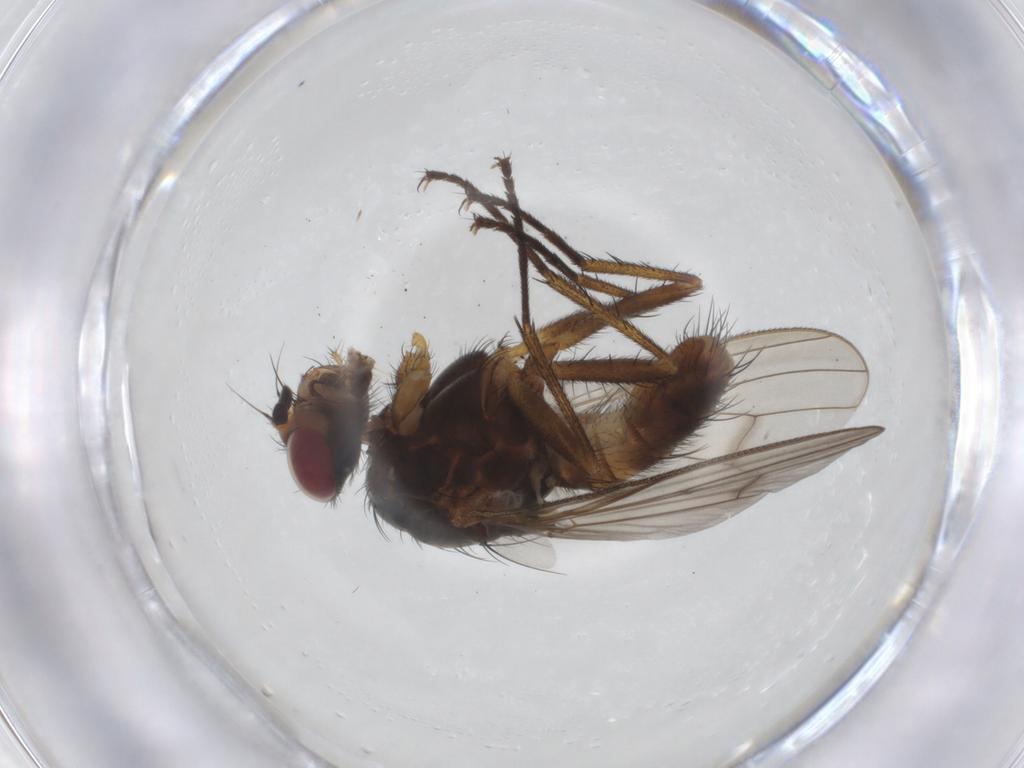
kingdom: Animalia
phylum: Arthropoda
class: Insecta
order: Diptera
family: Anthomyiidae
